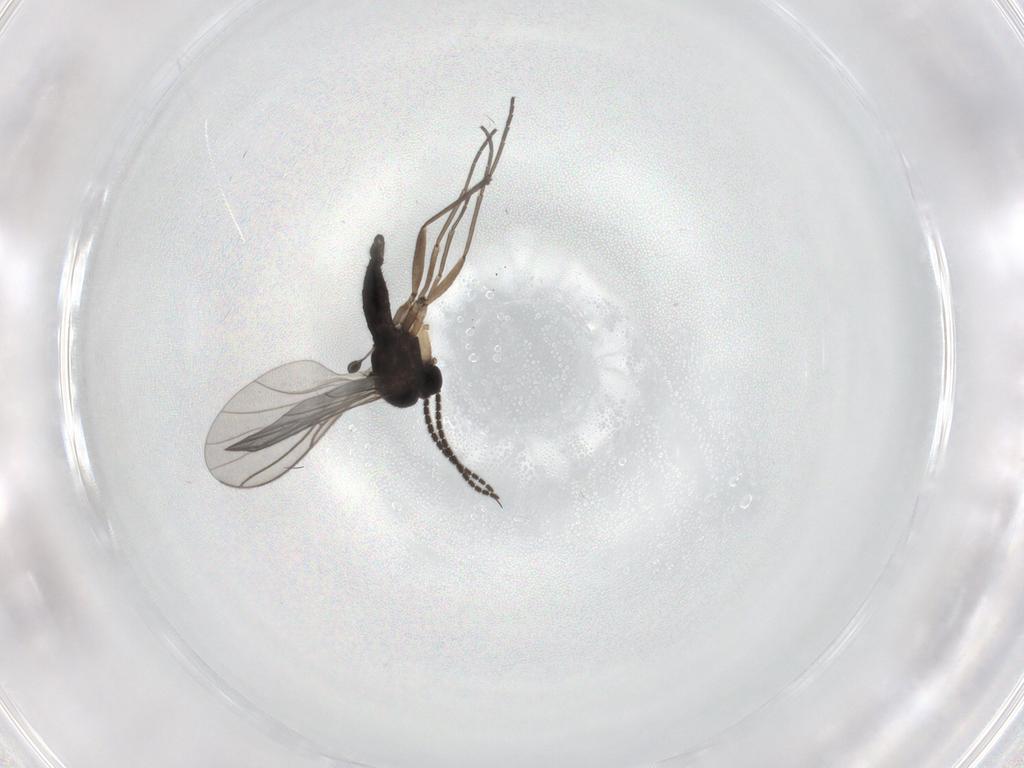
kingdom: Animalia
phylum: Arthropoda
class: Insecta
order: Diptera
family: Sciaridae
